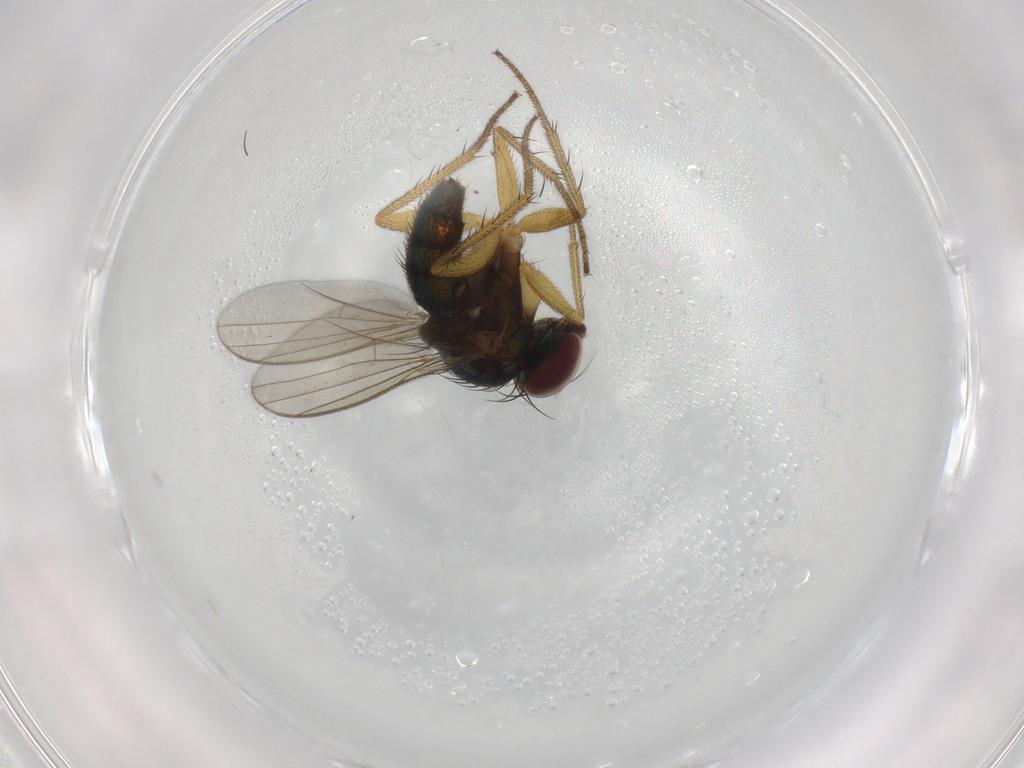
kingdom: Animalia
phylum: Arthropoda
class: Insecta
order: Diptera
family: Dolichopodidae
